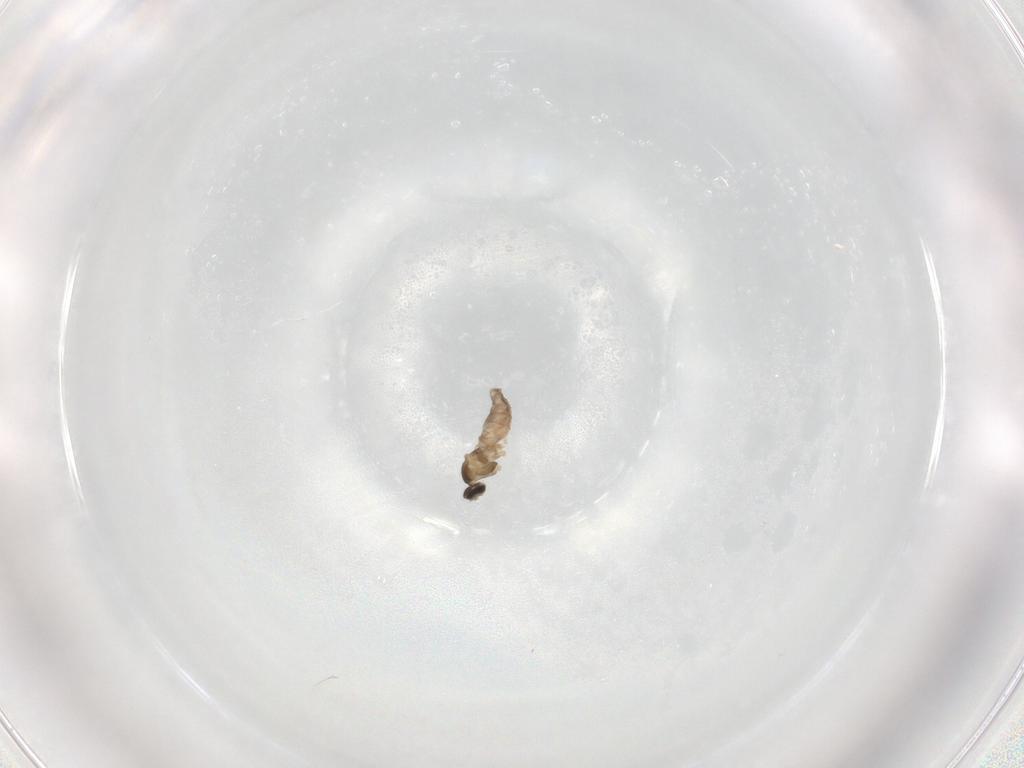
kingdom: Animalia
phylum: Arthropoda
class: Insecta
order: Diptera
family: Cecidomyiidae
